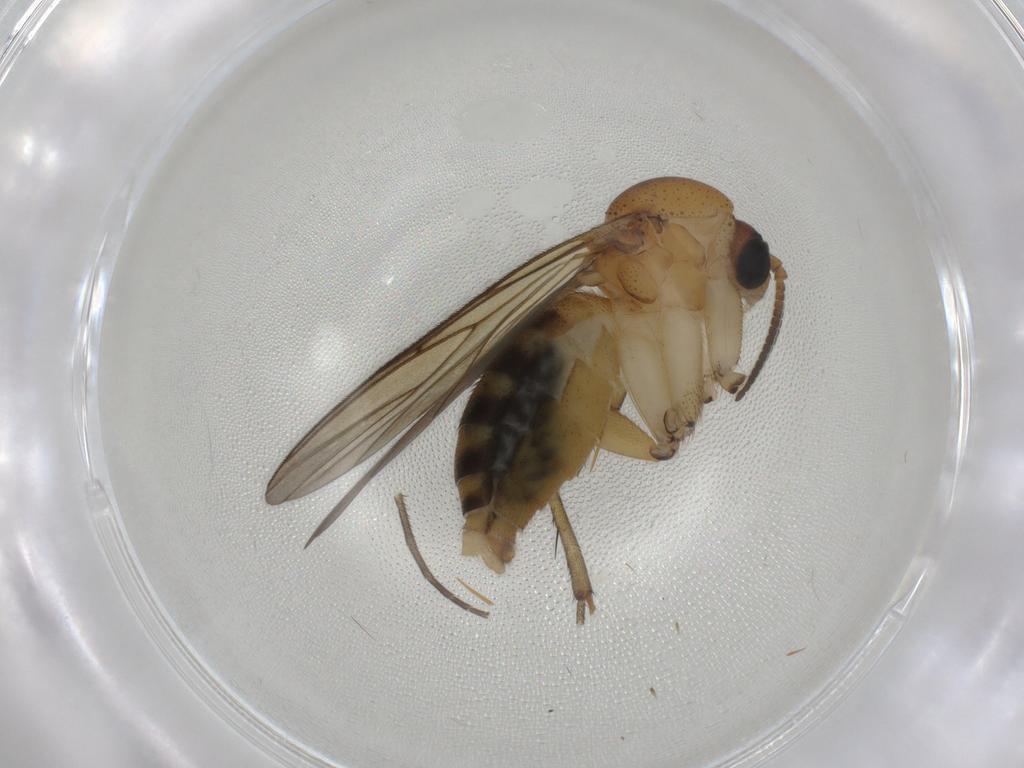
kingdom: Animalia
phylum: Arthropoda
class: Insecta
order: Diptera
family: Mycetophilidae
